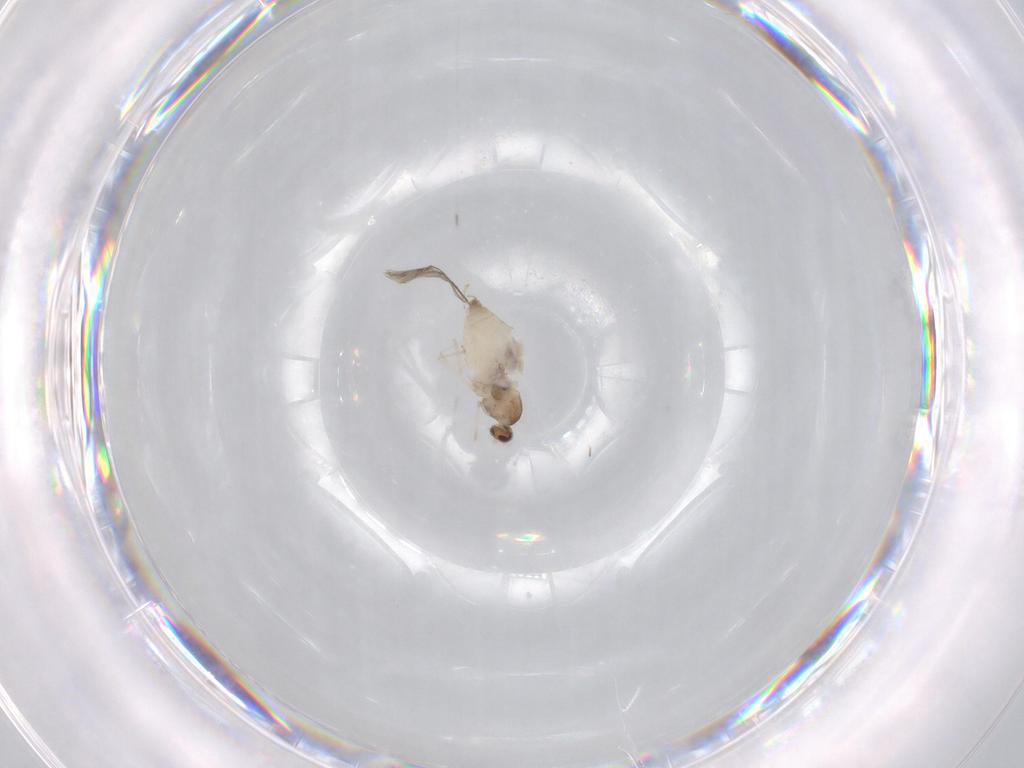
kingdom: Animalia
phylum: Arthropoda
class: Insecta
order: Diptera
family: Cecidomyiidae
